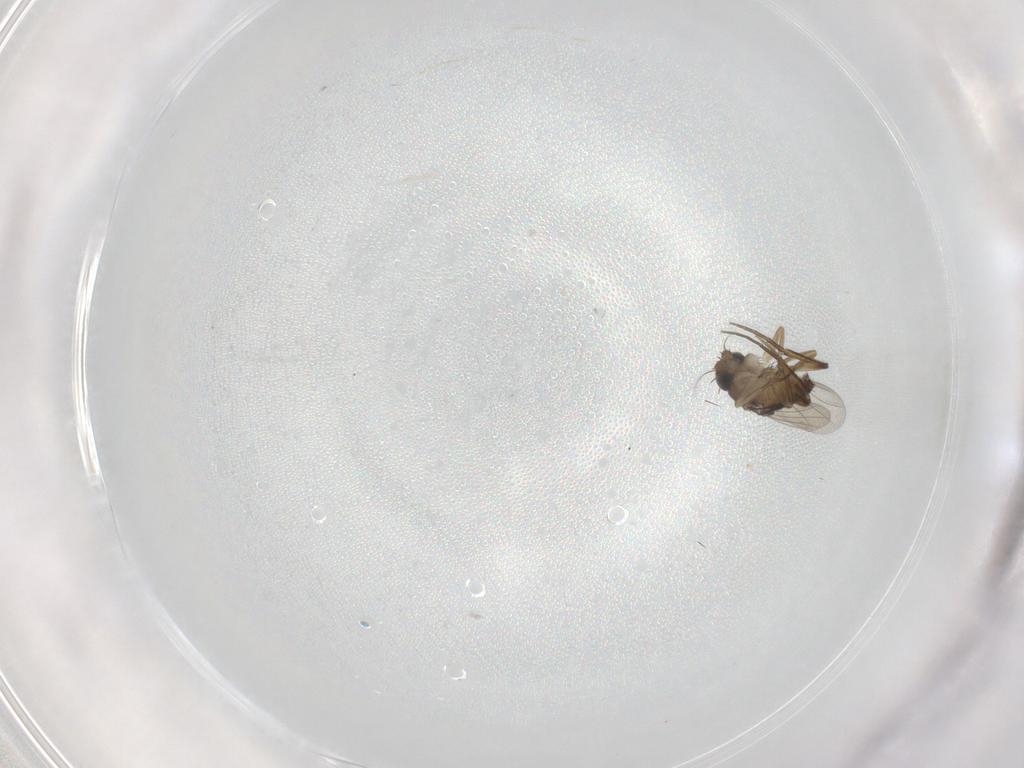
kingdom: Animalia
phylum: Arthropoda
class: Insecta
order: Diptera
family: Phoridae
